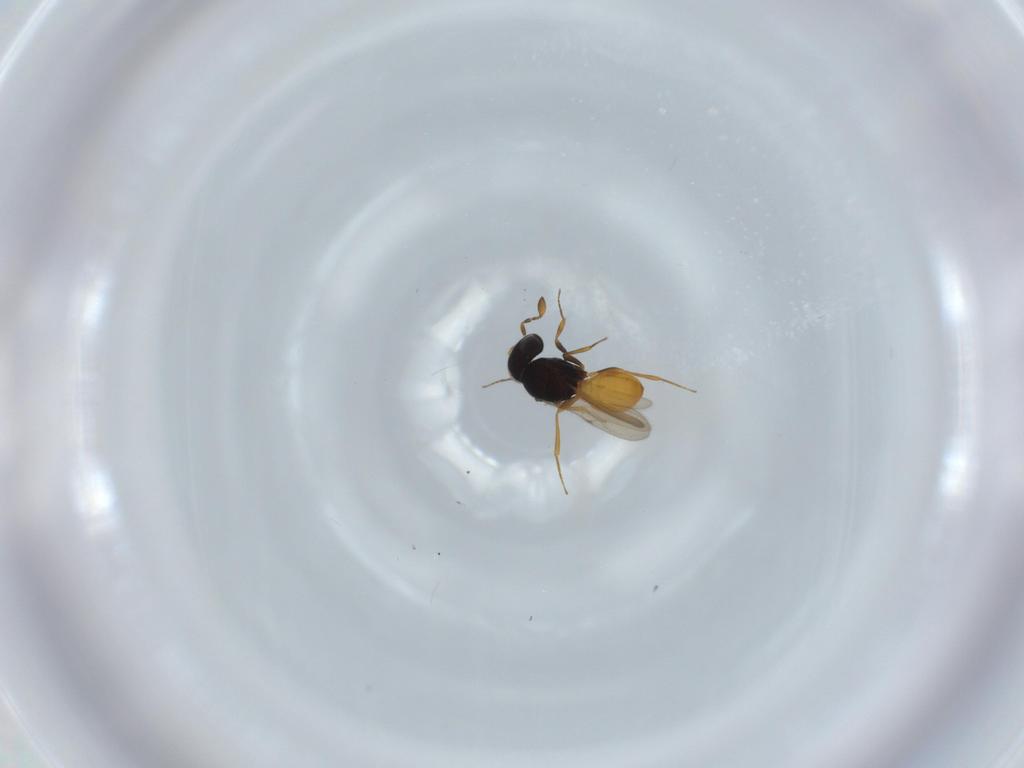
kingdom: Animalia
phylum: Arthropoda
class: Insecta
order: Hymenoptera
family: Scelionidae
